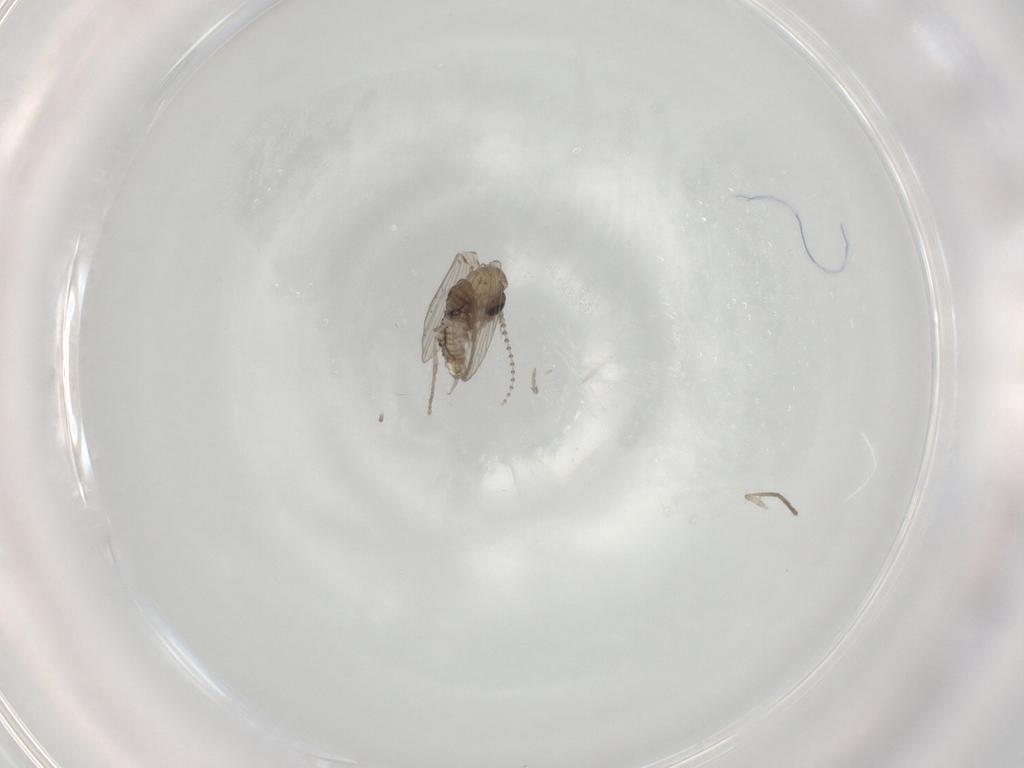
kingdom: Animalia
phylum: Arthropoda
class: Insecta
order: Diptera
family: Psychodidae
